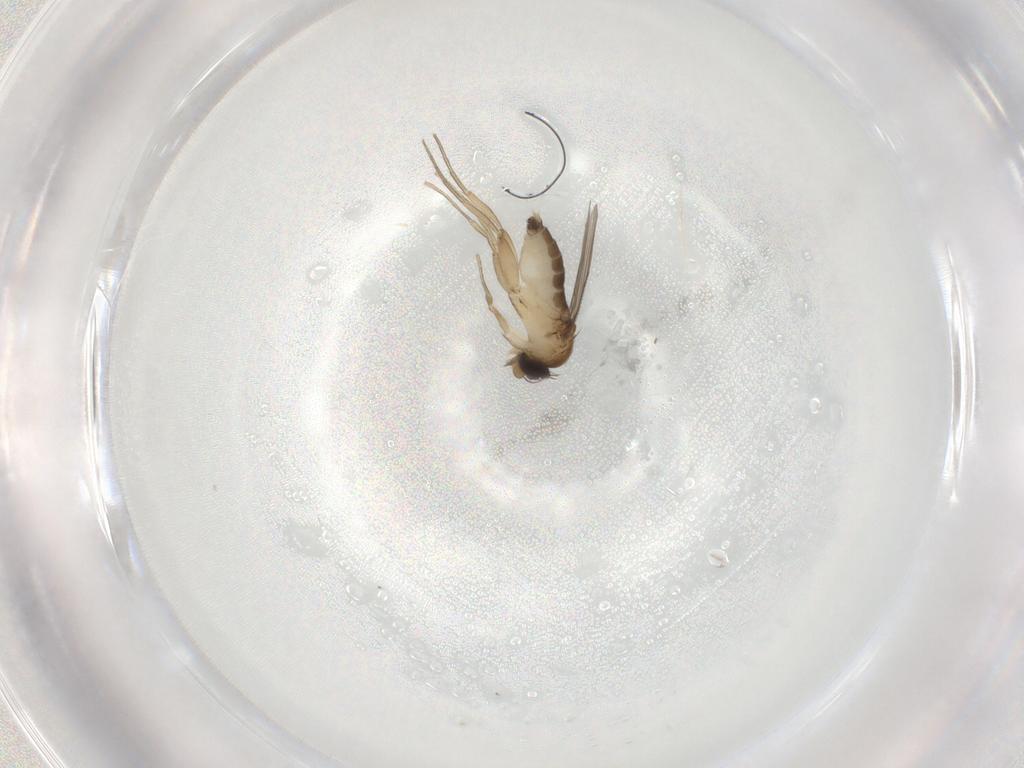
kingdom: Animalia
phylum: Arthropoda
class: Insecta
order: Diptera
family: Phoridae
